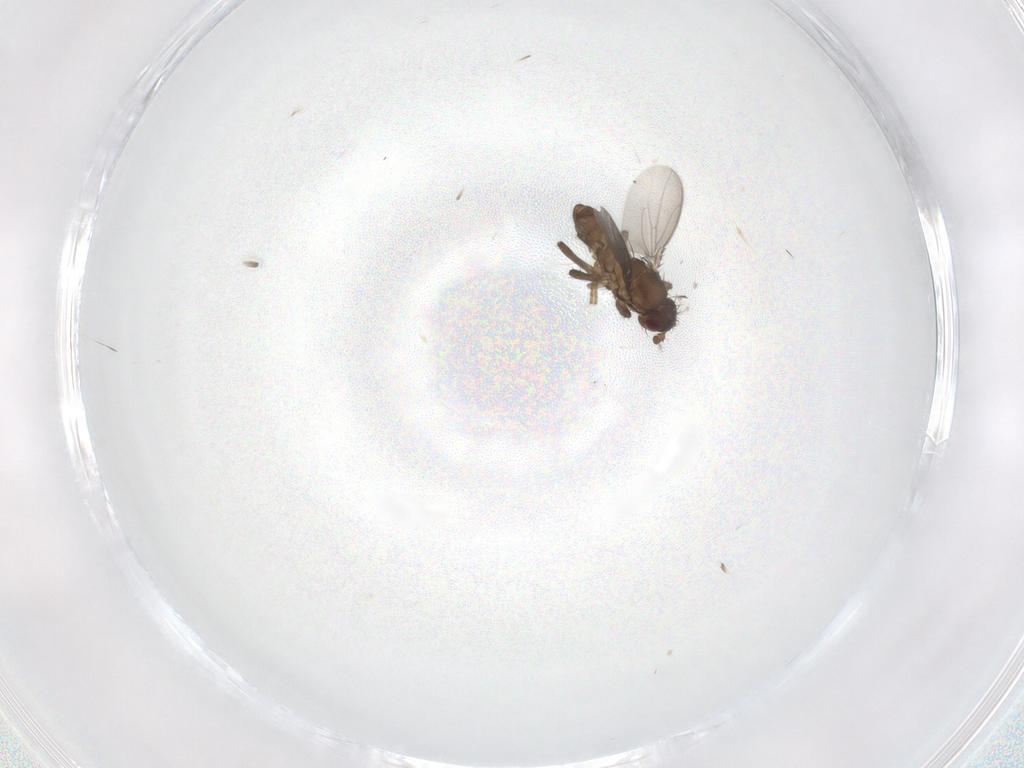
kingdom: Animalia
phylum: Arthropoda
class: Insecta
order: Diptera
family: Sphaeroceridae
